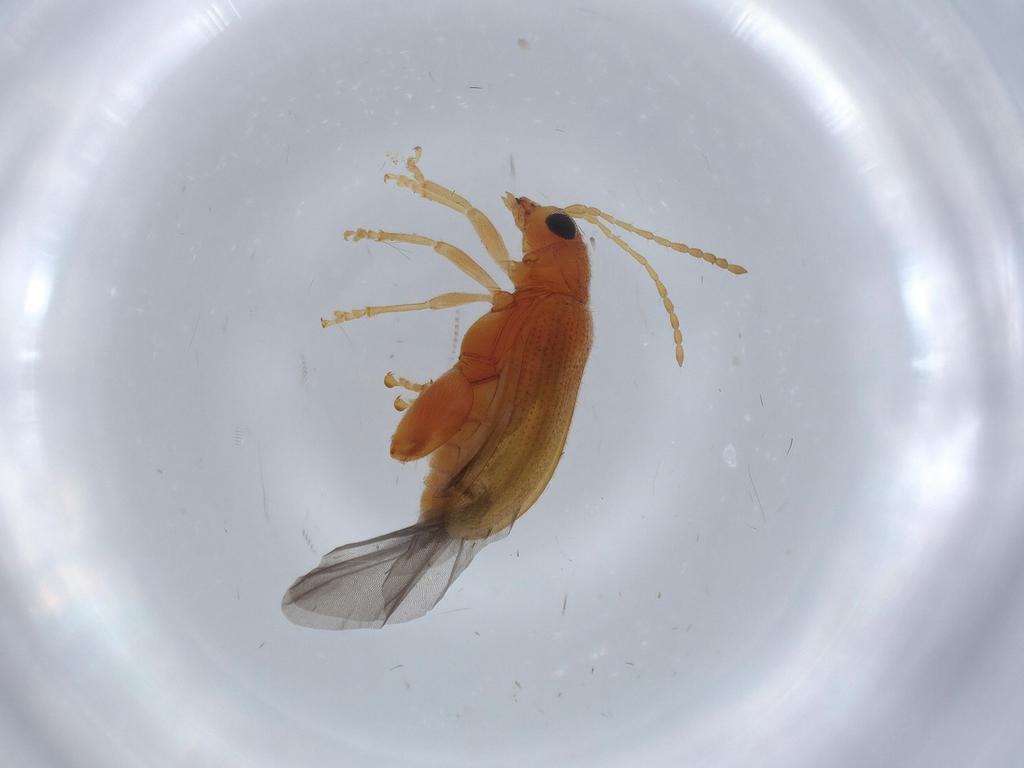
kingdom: Animalia
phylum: Arthropoda
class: Insecta
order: Coleoptera
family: Chrysomelidae
